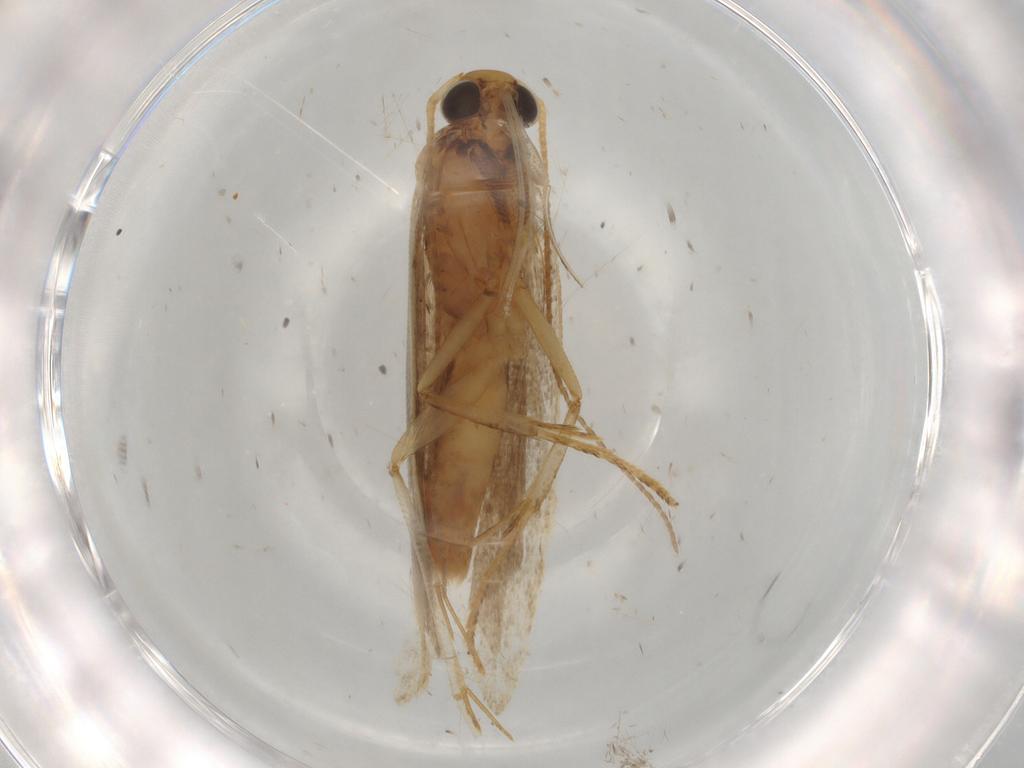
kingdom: Animalia
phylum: Arthropoda
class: Insecta
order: Lepidoptera
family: Gelechiidae
